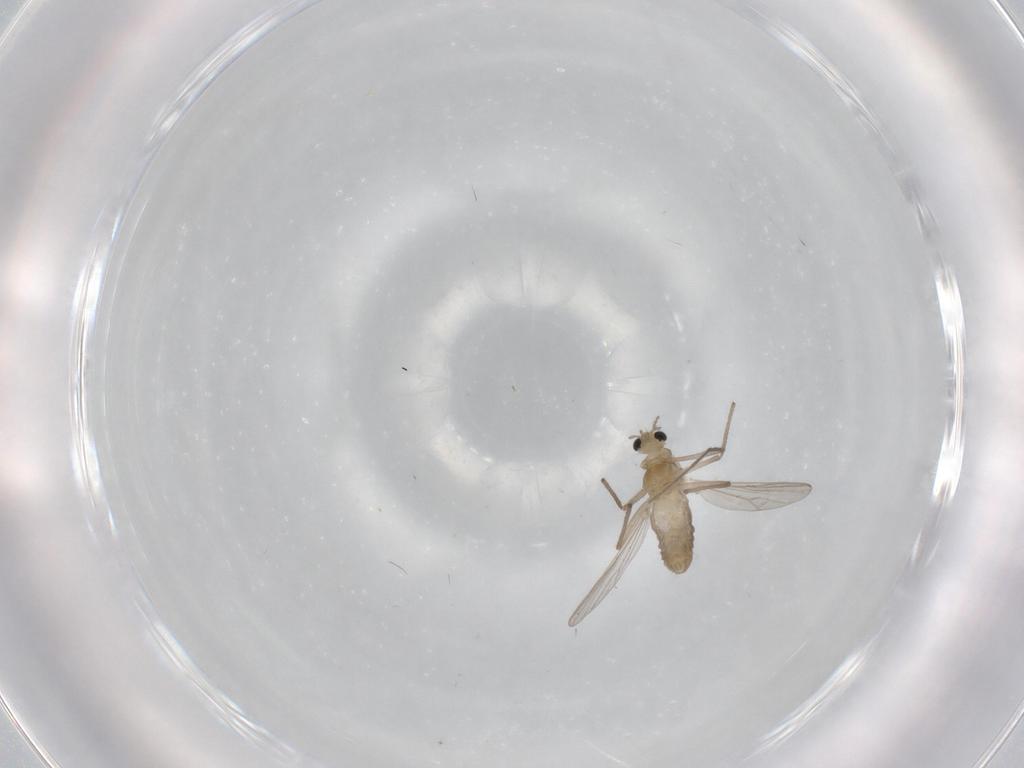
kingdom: Animalia
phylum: Arthropoda
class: Insecta
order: Diptera
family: Chironomidae
